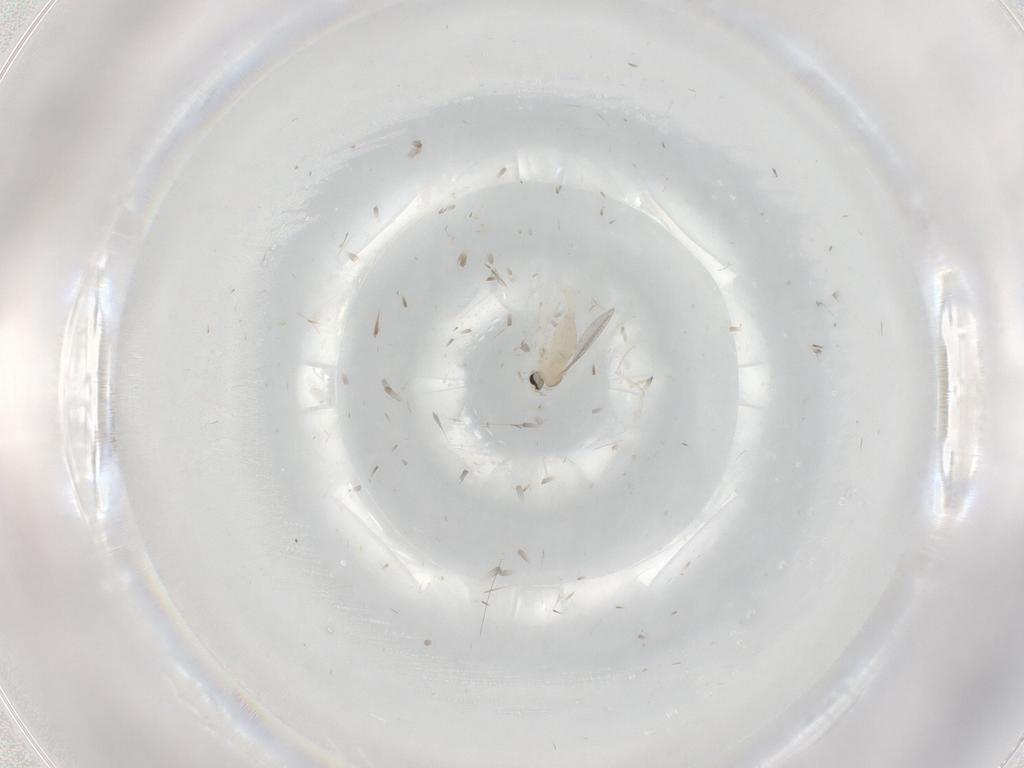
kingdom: Animalia
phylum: Arthropoda
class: Insecta
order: Diptera
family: Cecidomyiidae
